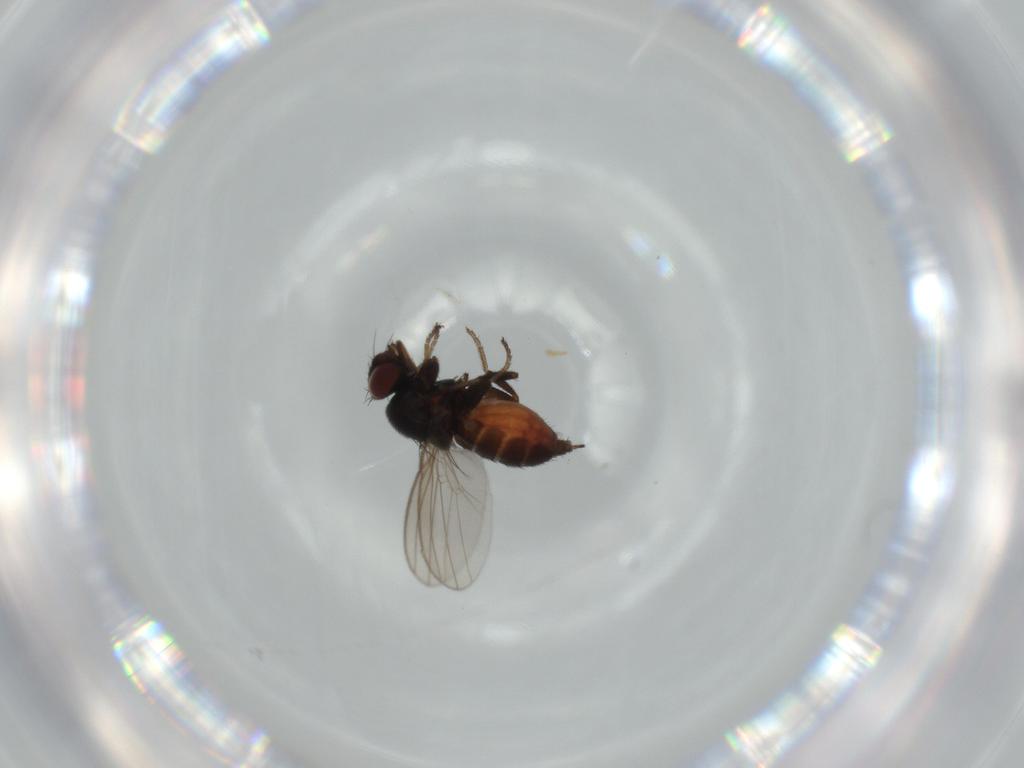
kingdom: Animalia
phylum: Arthropoda
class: Insecta
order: Diptera
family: Milichiidae
